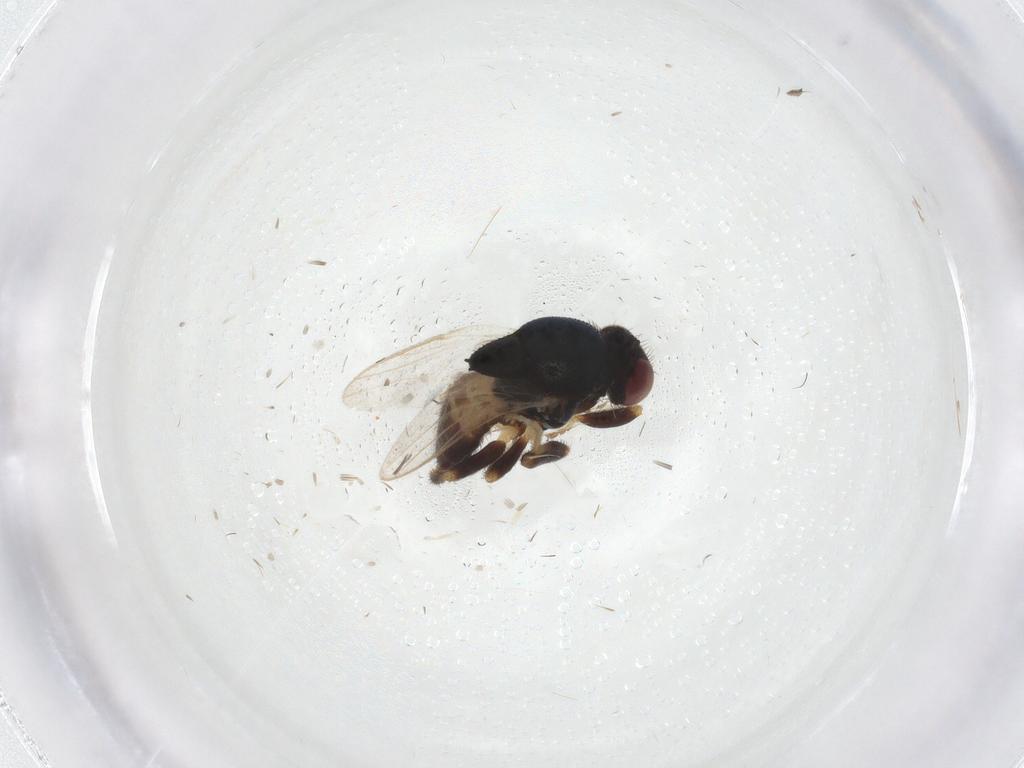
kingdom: Animalia
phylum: Arthropoda
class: Insecta
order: Diptera
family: Chloropidae
